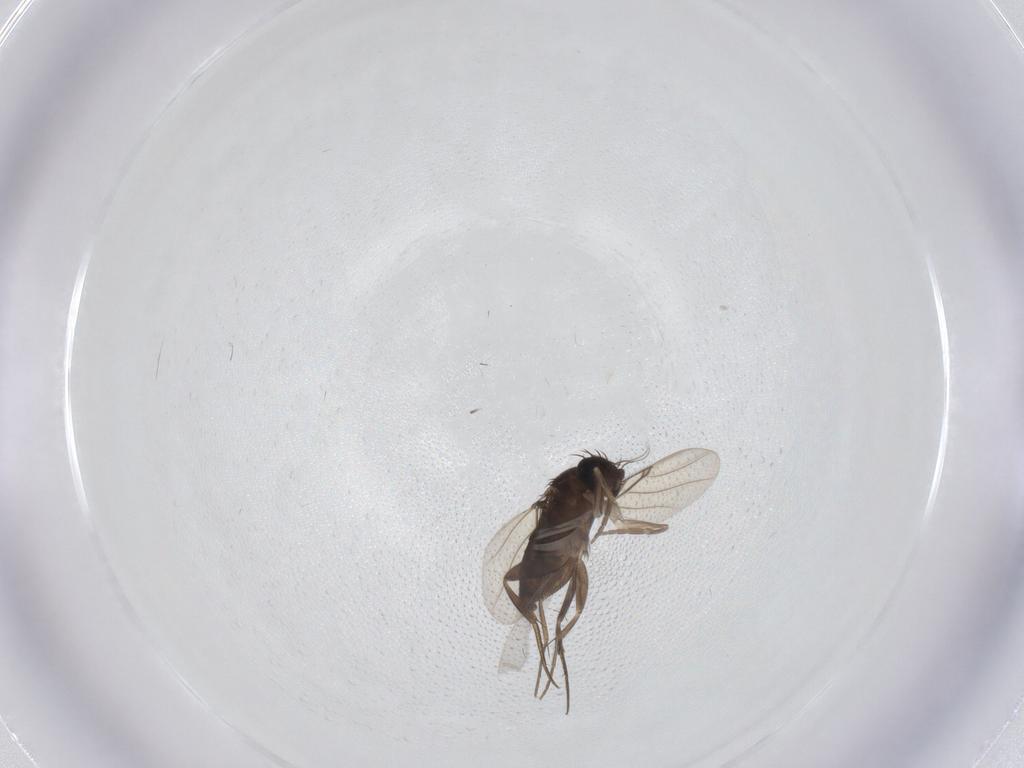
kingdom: Animalia
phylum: Arthropoda
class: Insecta
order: Diptera
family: Phoridae
